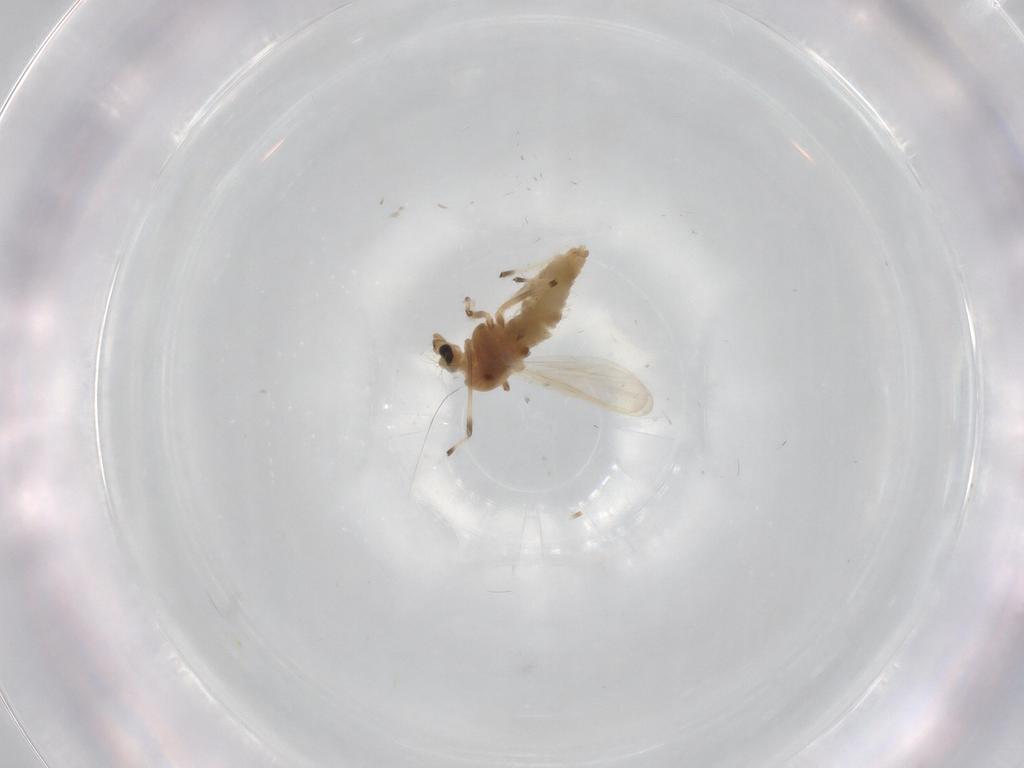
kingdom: Animalia
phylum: Arthropoda
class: Insecta
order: Diptera
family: Chironomidae
